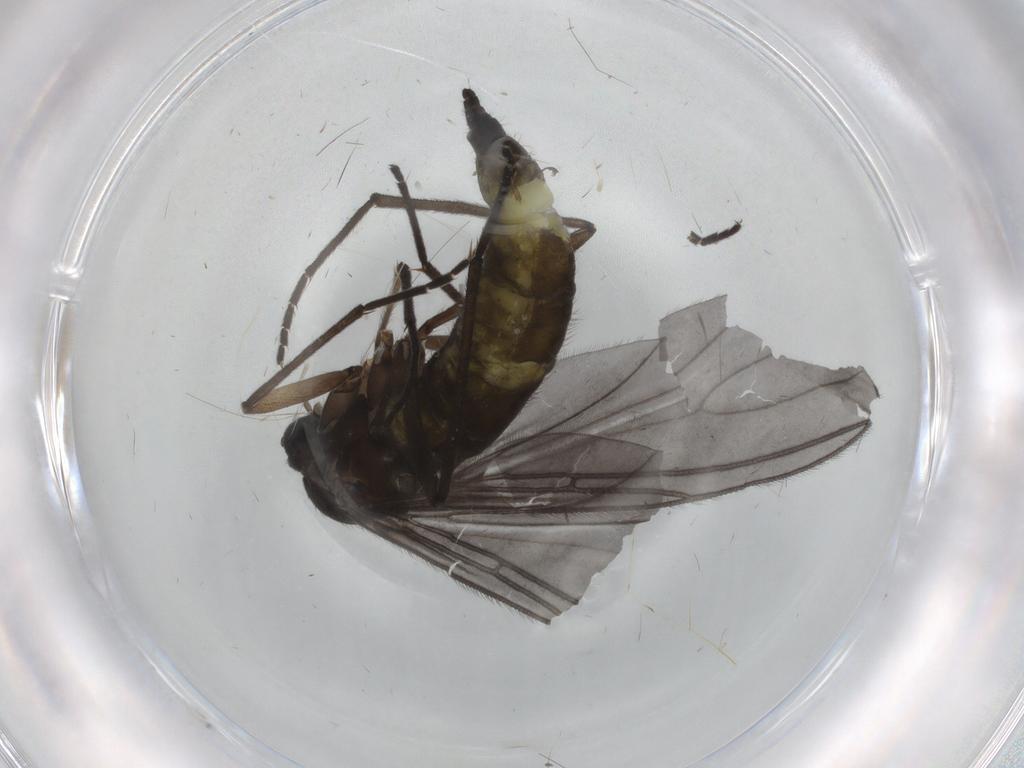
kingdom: Animalia
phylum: Arthropoda
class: Insecta
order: Diptera
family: Sciaridae
